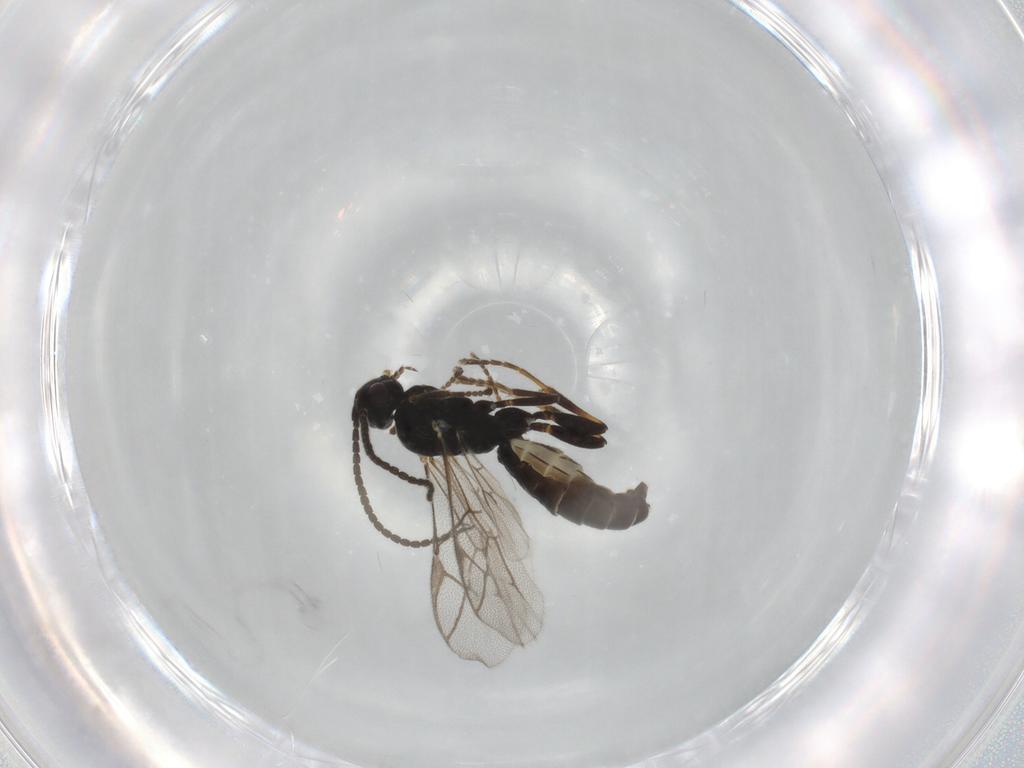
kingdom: Animalia
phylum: Arthropoda
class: Insecta
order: Hymenoptera
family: Ichneumonidae
